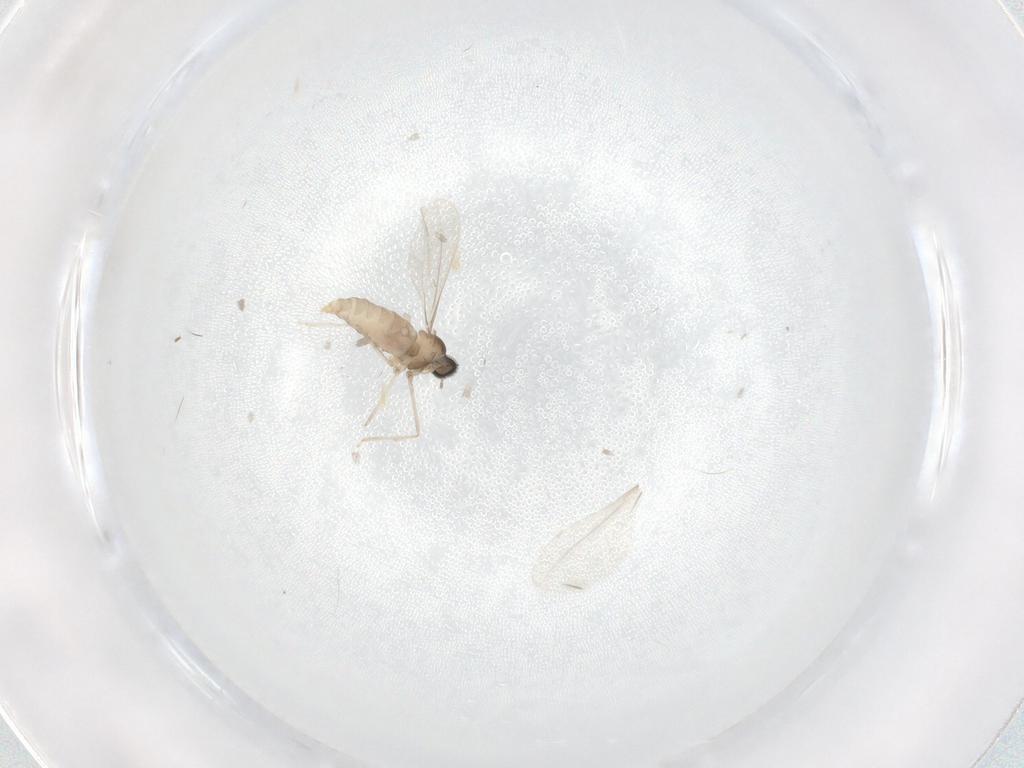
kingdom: Animalia
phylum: Arthropoda
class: Insecta
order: Diptera
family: Cecidomyiidae
